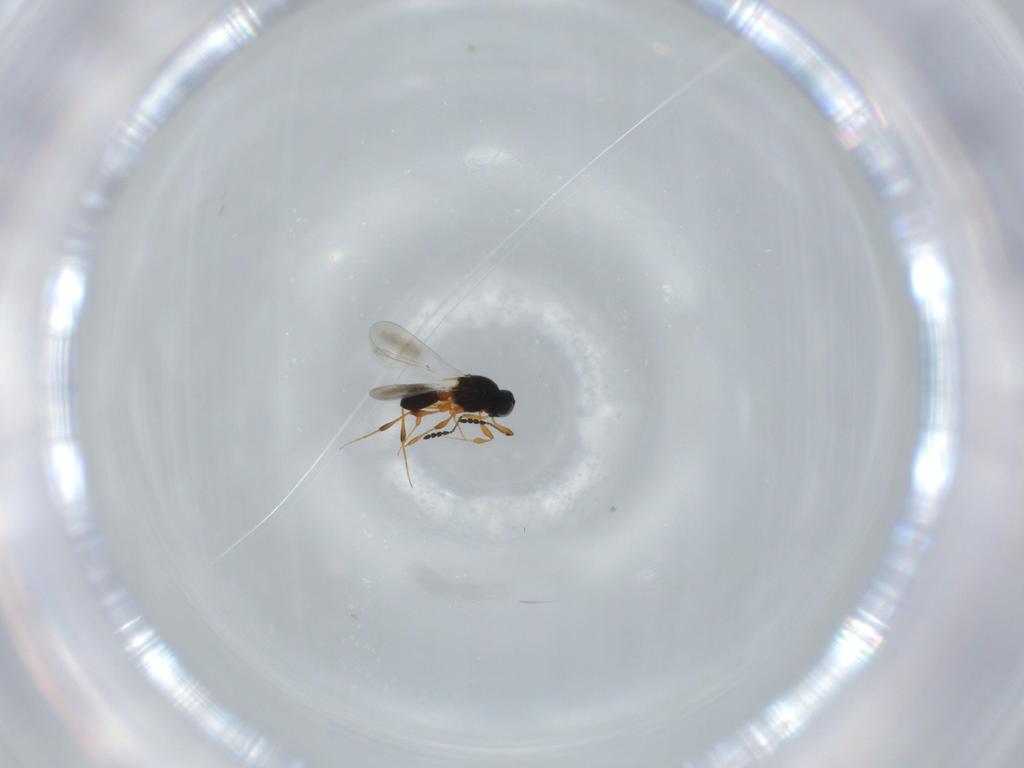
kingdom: Animalia
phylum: Arthropoda
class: Insecta
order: Hymenoptera
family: Platygastridae
